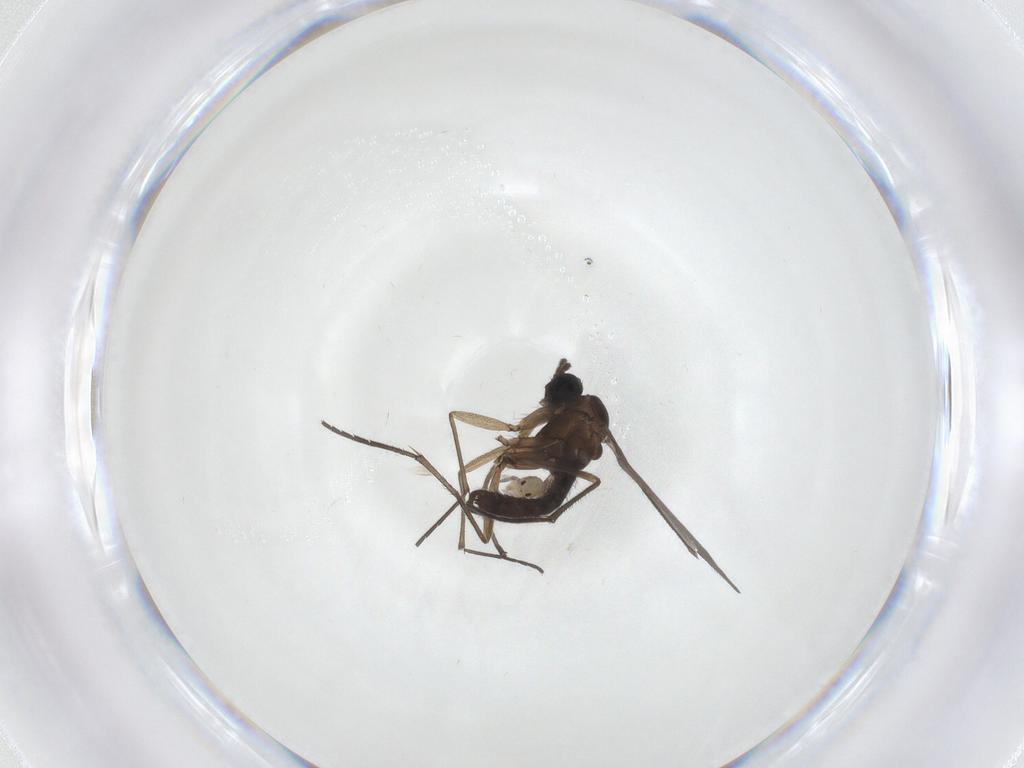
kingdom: Animalia
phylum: Arthropoda
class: Insecta
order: Diptera
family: Sciaridae
